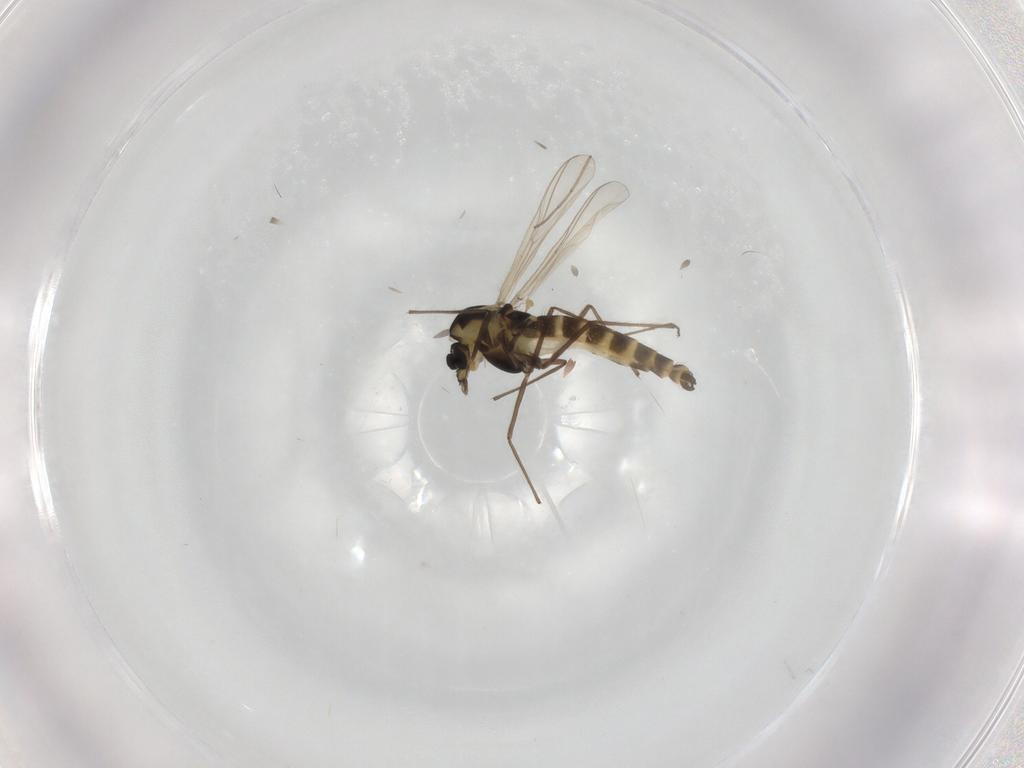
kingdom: Animalia
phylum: Arthropoda
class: Insecta
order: Diptera
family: Chironomidae
